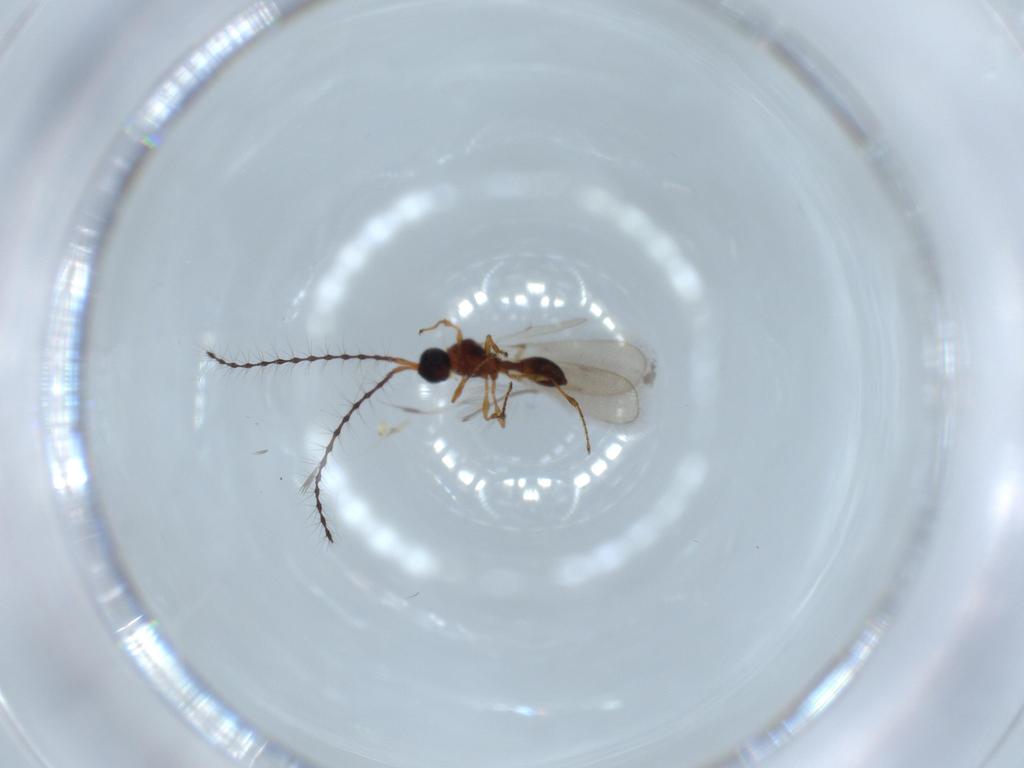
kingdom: Animalia
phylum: Arthropoda
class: Insecta
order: Hymenoptera
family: Diapriidae
